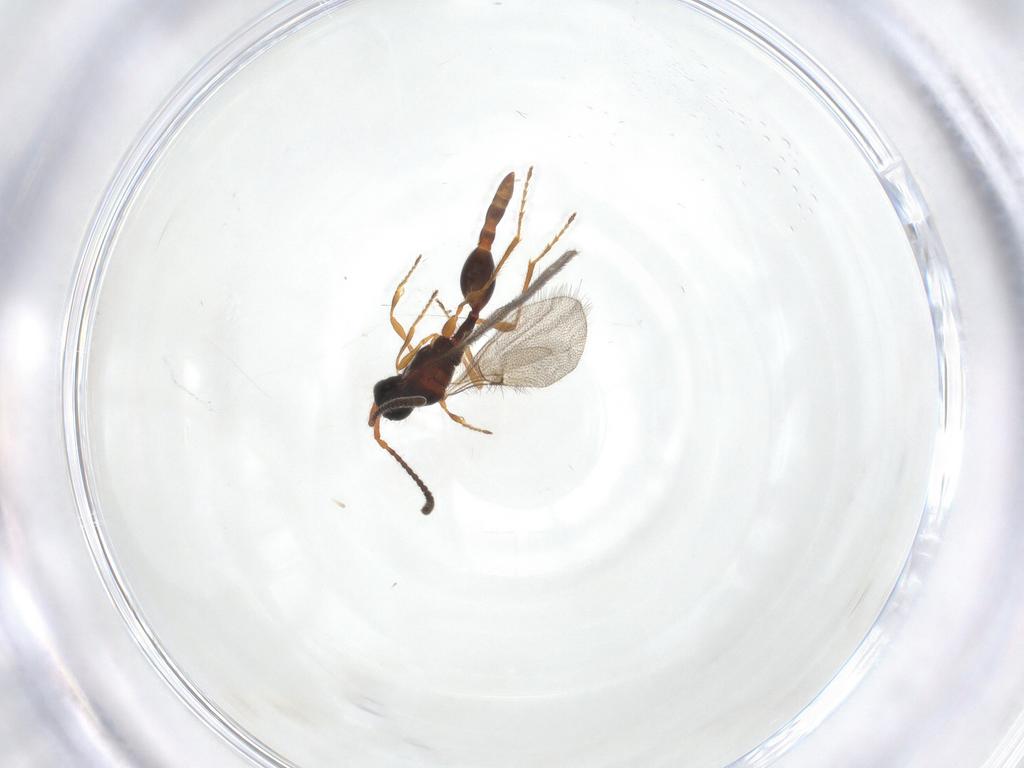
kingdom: Animalia
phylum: Arthropoda
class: Insecta
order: Hymenoptera
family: Diapriidae
